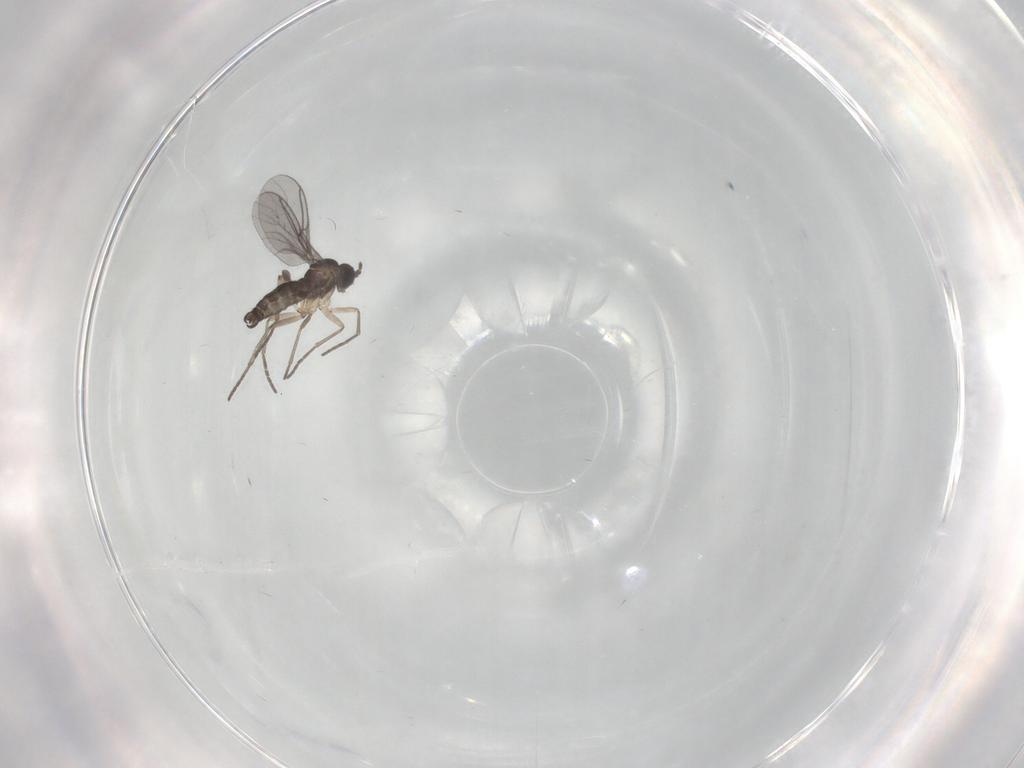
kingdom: Animalia
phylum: Arthropoda
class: Insecta
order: Diptera
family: Sciaridae
